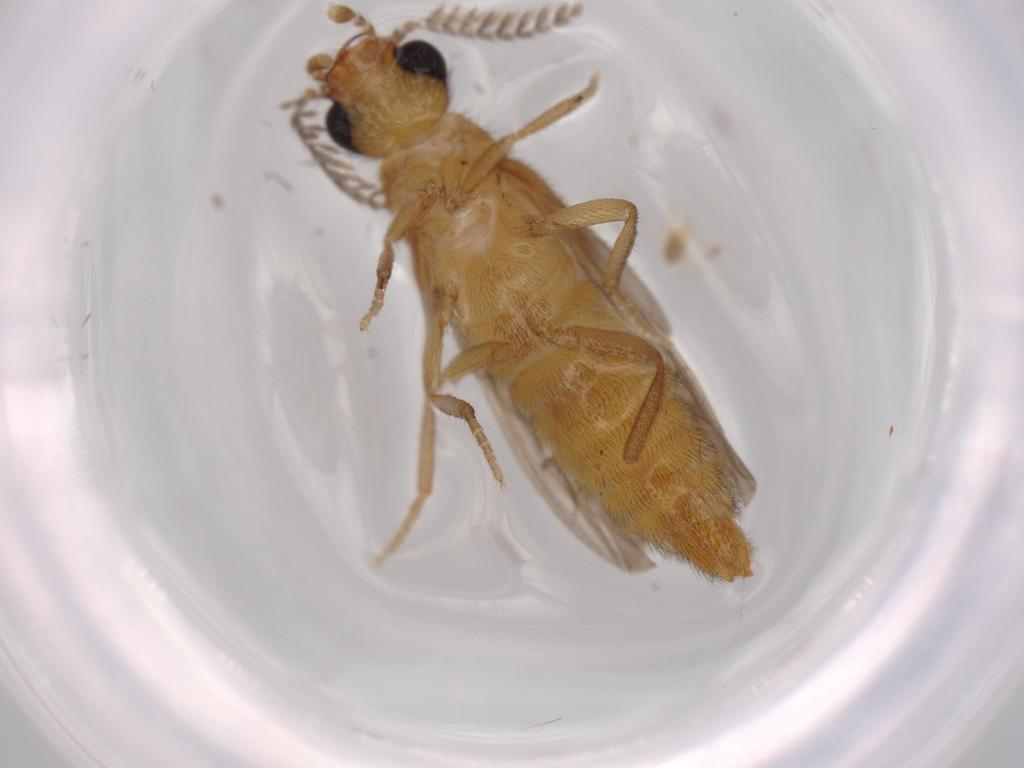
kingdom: Animalia
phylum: Arthropoda
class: Insecta
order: Coleoptera
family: Chrysomelidae
